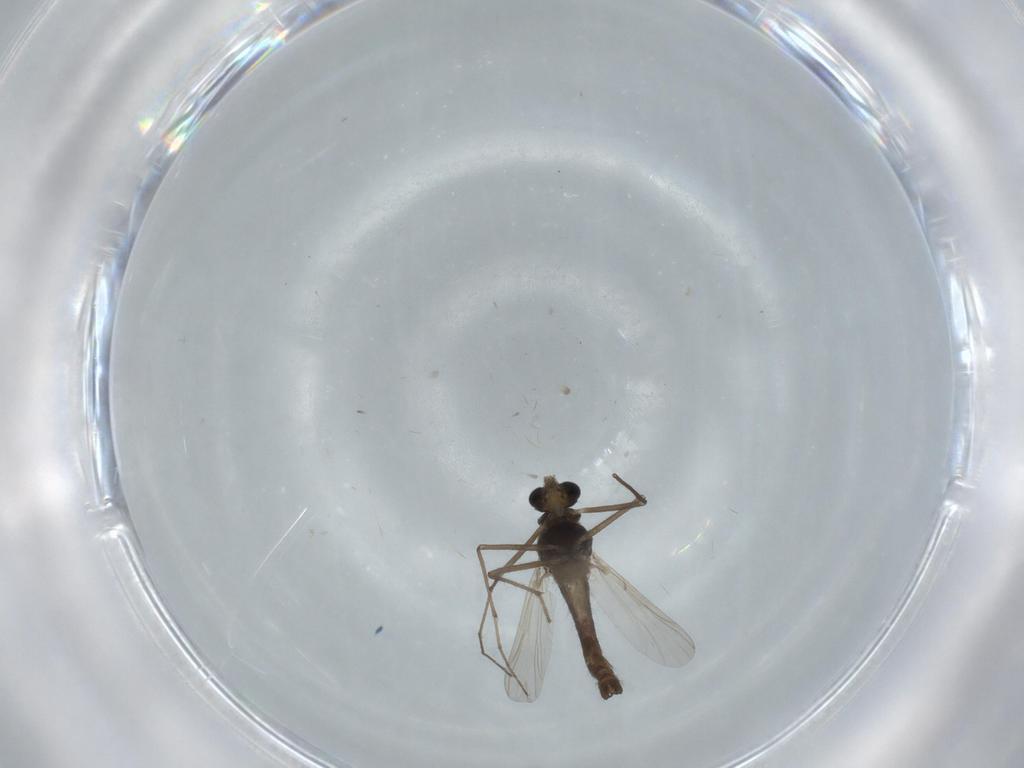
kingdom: Animalia
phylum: Arthropoda
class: Insecta
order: Diptera
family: Chironomidae
